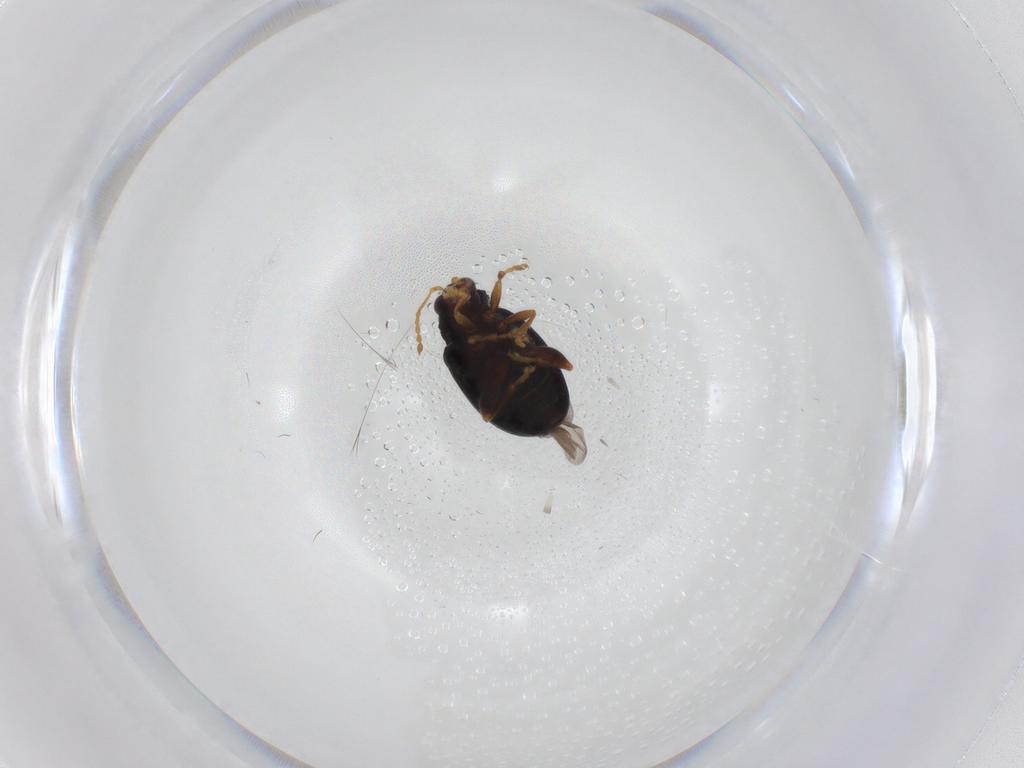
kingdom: Animalia
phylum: Arthropoda
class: Insecta
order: Coleoptera
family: Chrysomelidae
